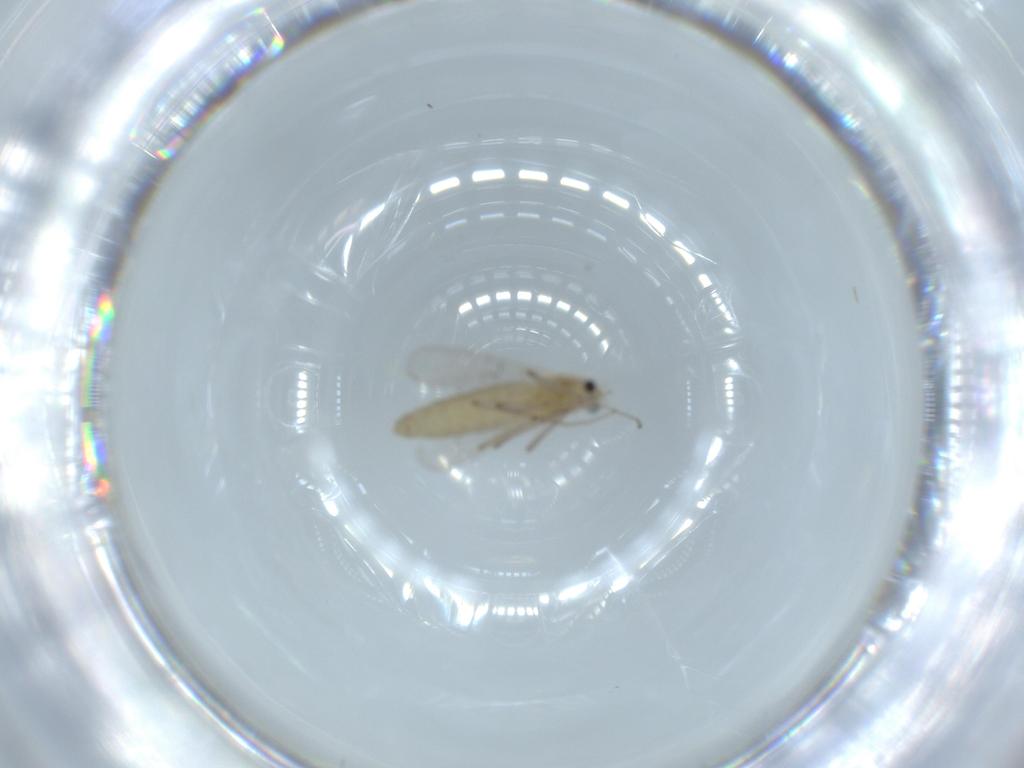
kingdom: Animalia
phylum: Arthropoda
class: Insecta
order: Diptera
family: Chironomidae
